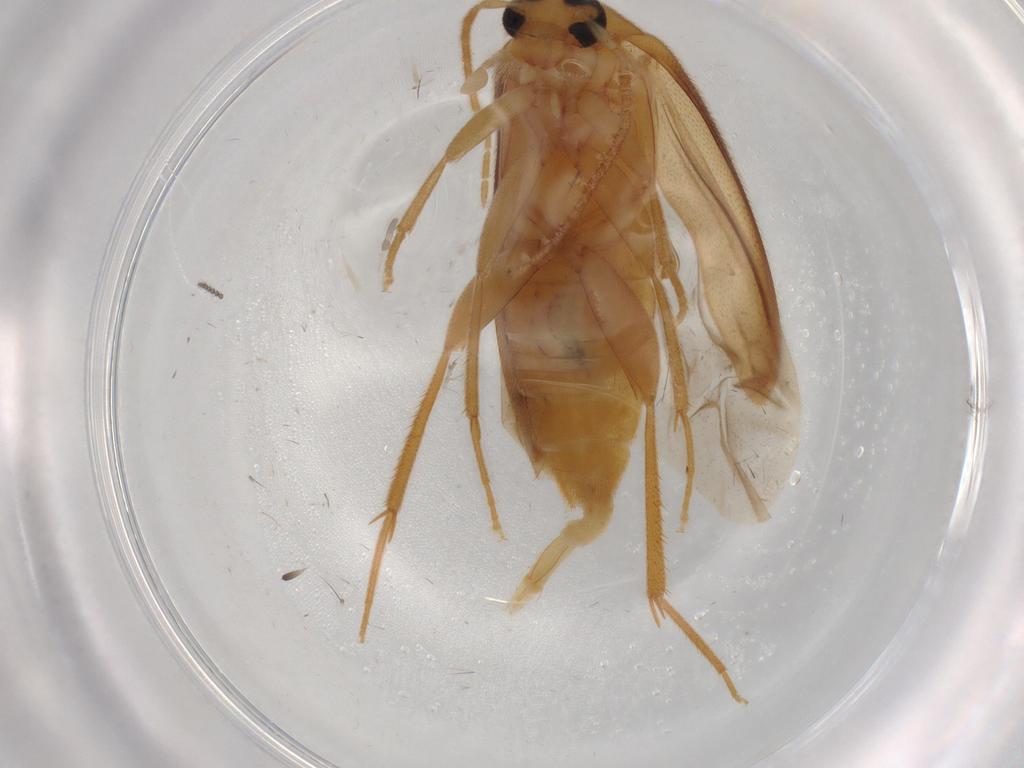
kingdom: Animalia
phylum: Arthropoda
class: Insecta
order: Coleoptera
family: Scraptiidae
